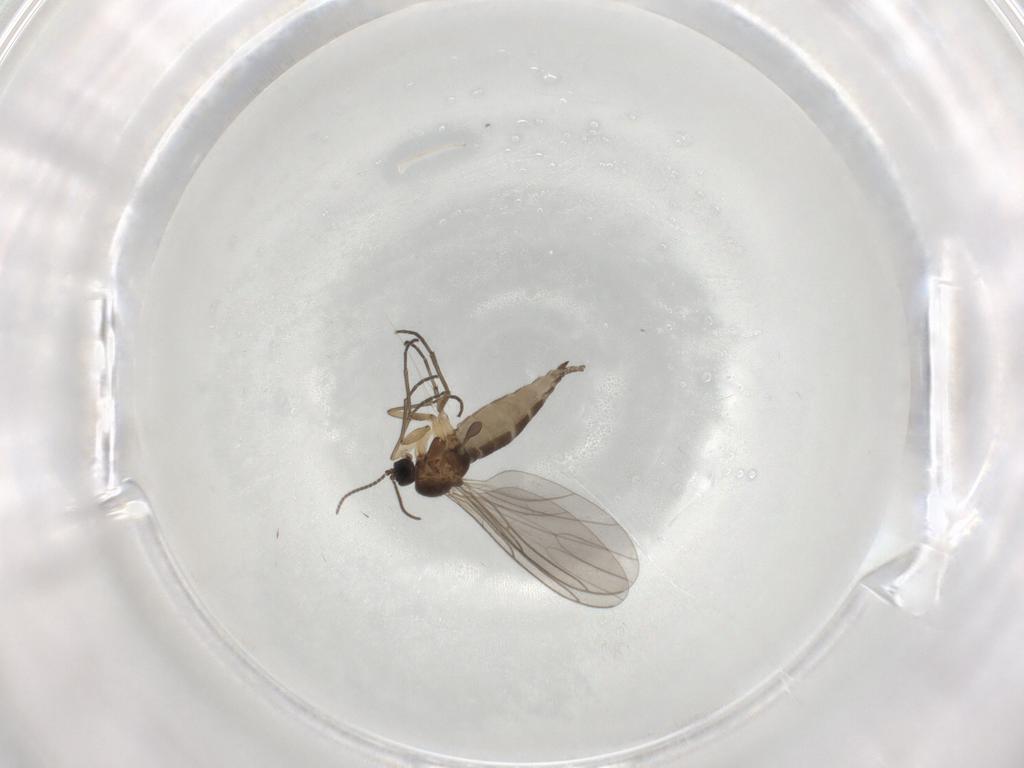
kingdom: Animalia
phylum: Arthropoda
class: Insecta
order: Diptera
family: Sciaridae
